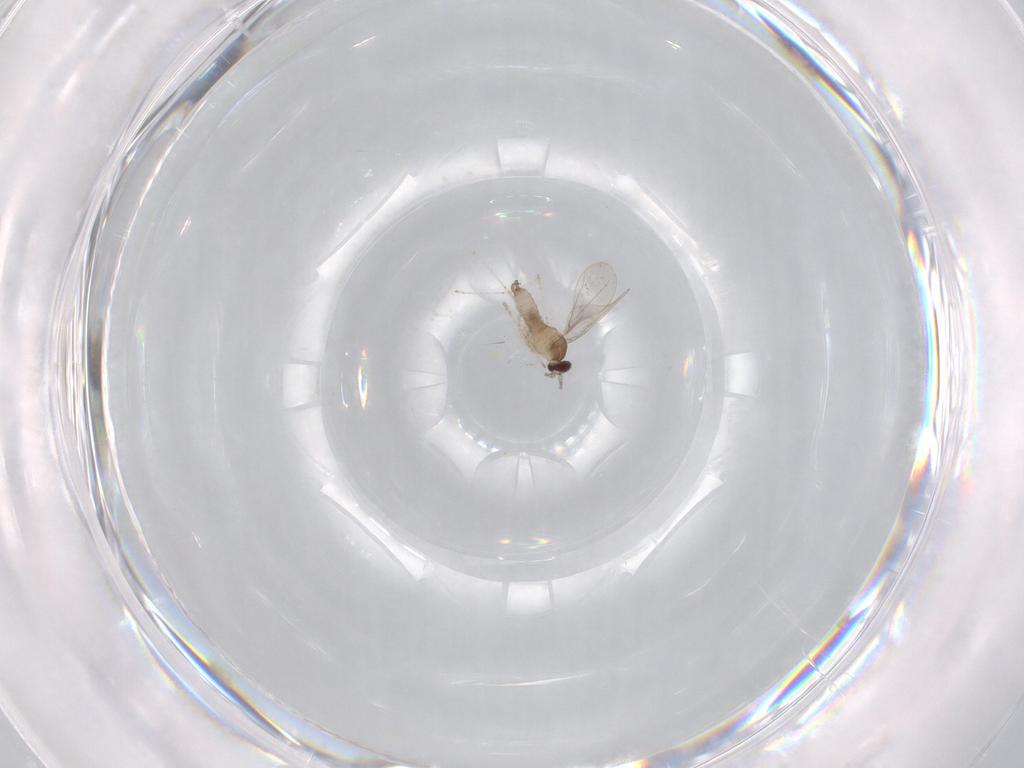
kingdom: Animalia
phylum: Arthropoda
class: Insecta
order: Diptera
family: Cecidomyiidae
